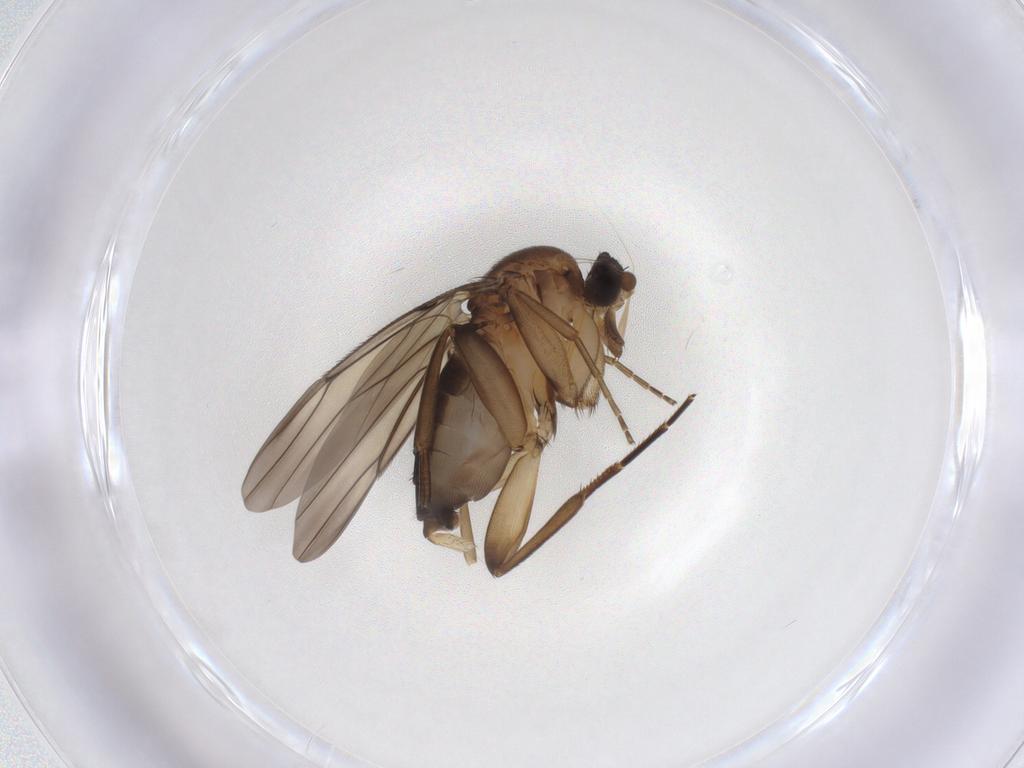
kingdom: Animalia
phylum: Arthropoda
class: Insecta
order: Diptera
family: Phoridae
